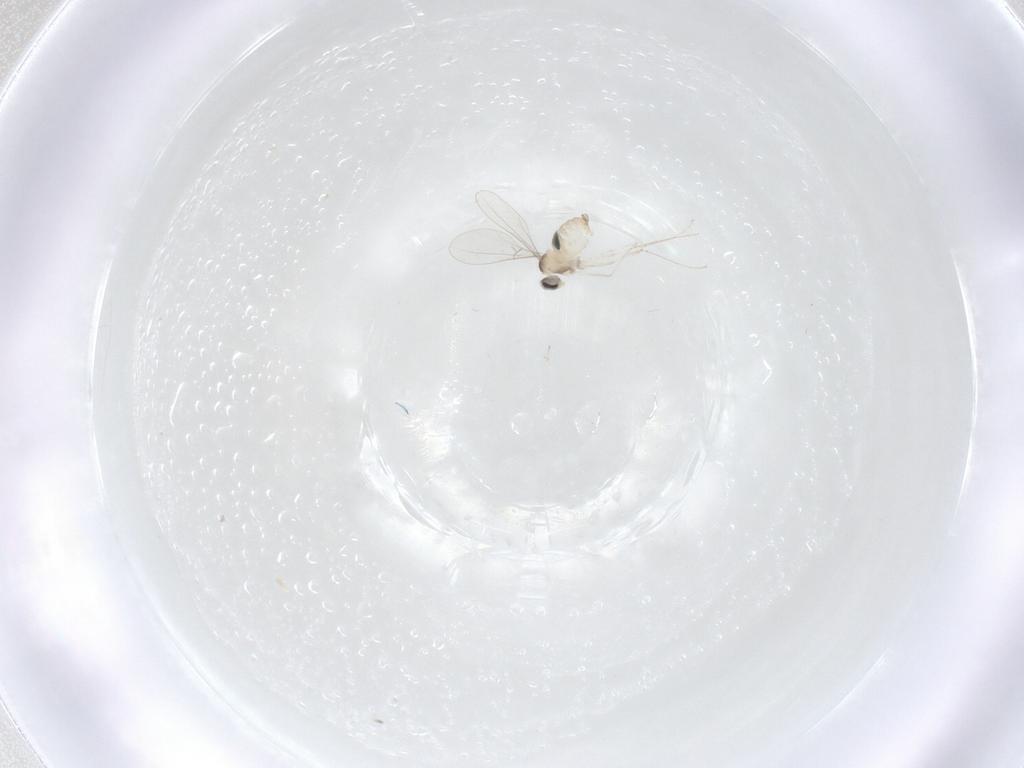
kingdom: Animalia
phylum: Arthropoda
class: Insecta
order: Diptera
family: Cecidomyiidae
